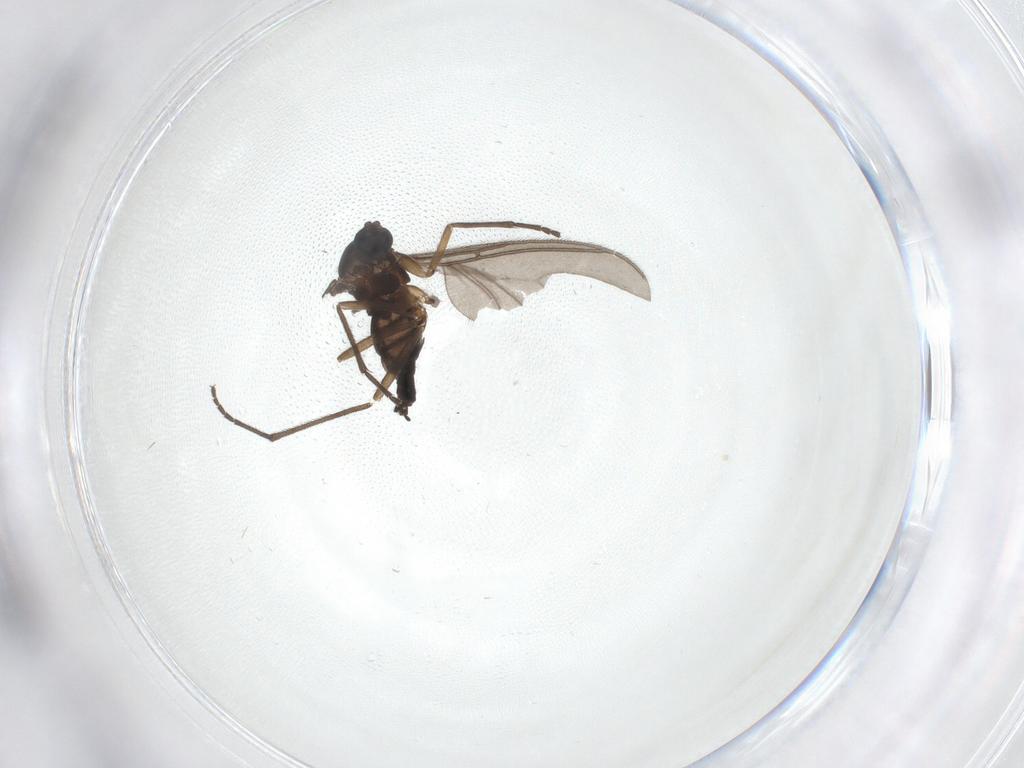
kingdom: Animalia
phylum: Arthropoda
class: Insecta
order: Diptera
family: Sciaridae
